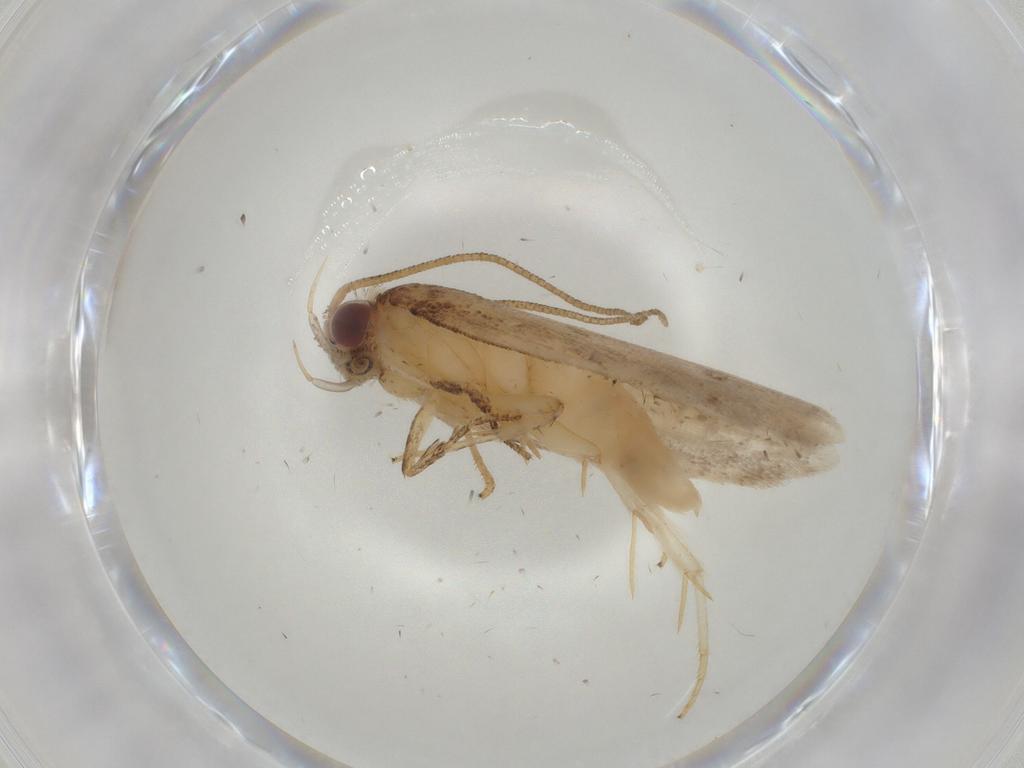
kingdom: Animalia
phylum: Arthropoda
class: Insecta
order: Lepidoptera
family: Gelechiidae
